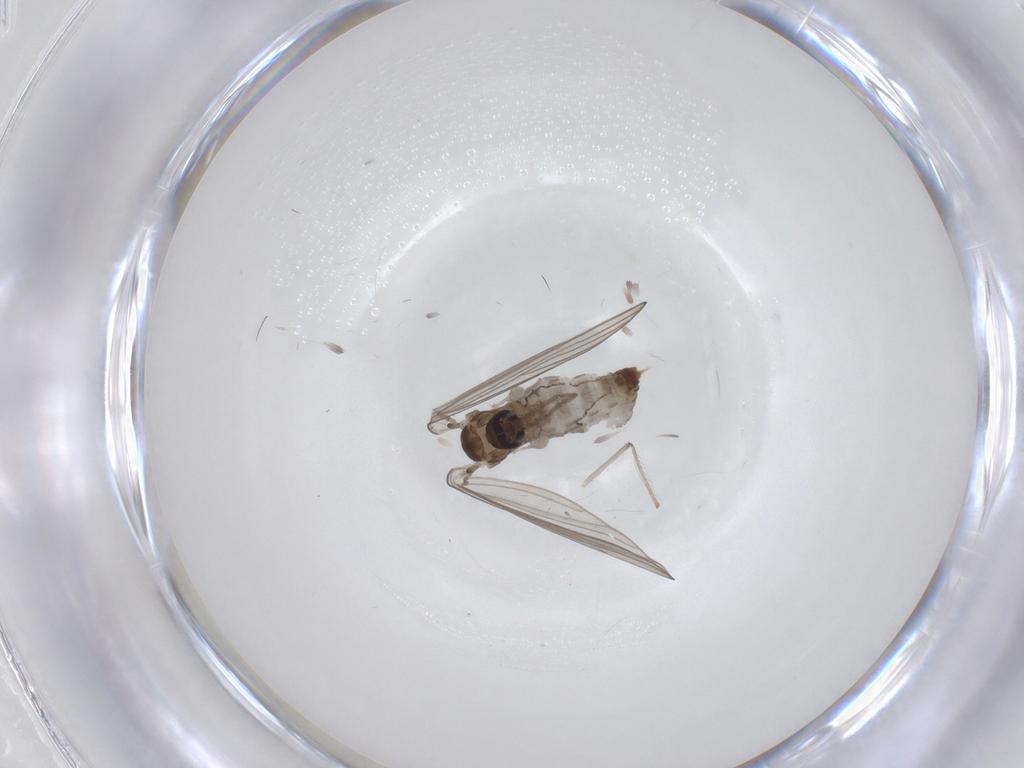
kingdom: Animalia
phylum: Arthropoda
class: Insecta
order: Diptera
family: Psychodidae
